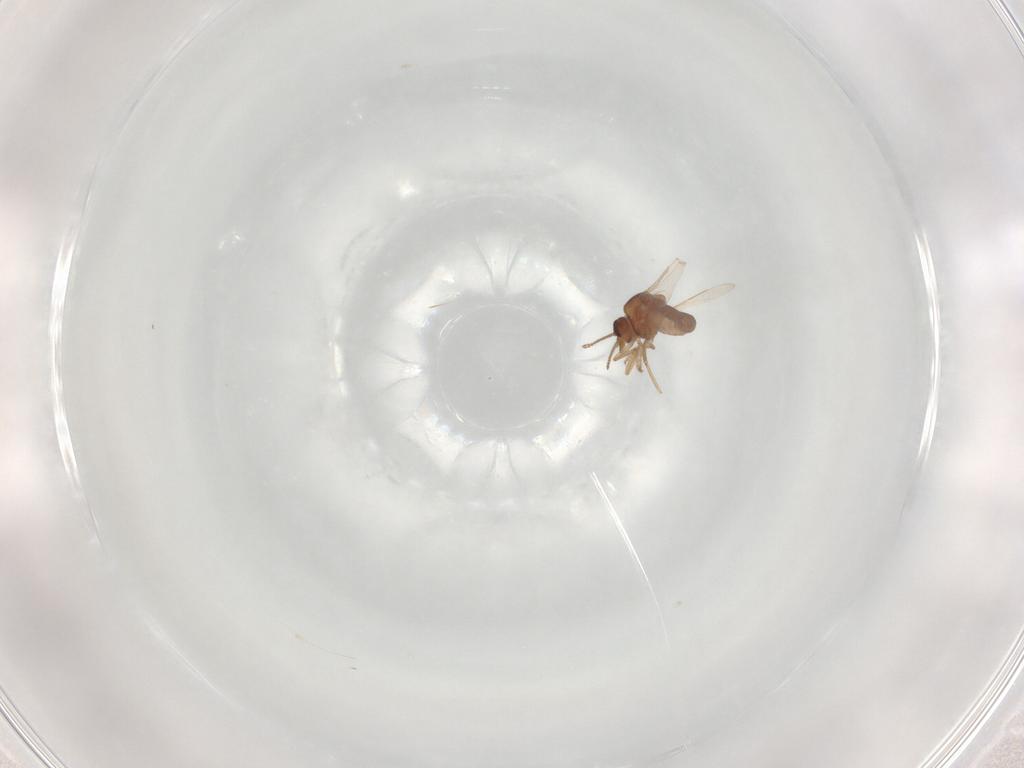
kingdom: Animalia
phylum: Arthropoda
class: Insecta
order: Diptera
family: Ceratopogonidae
